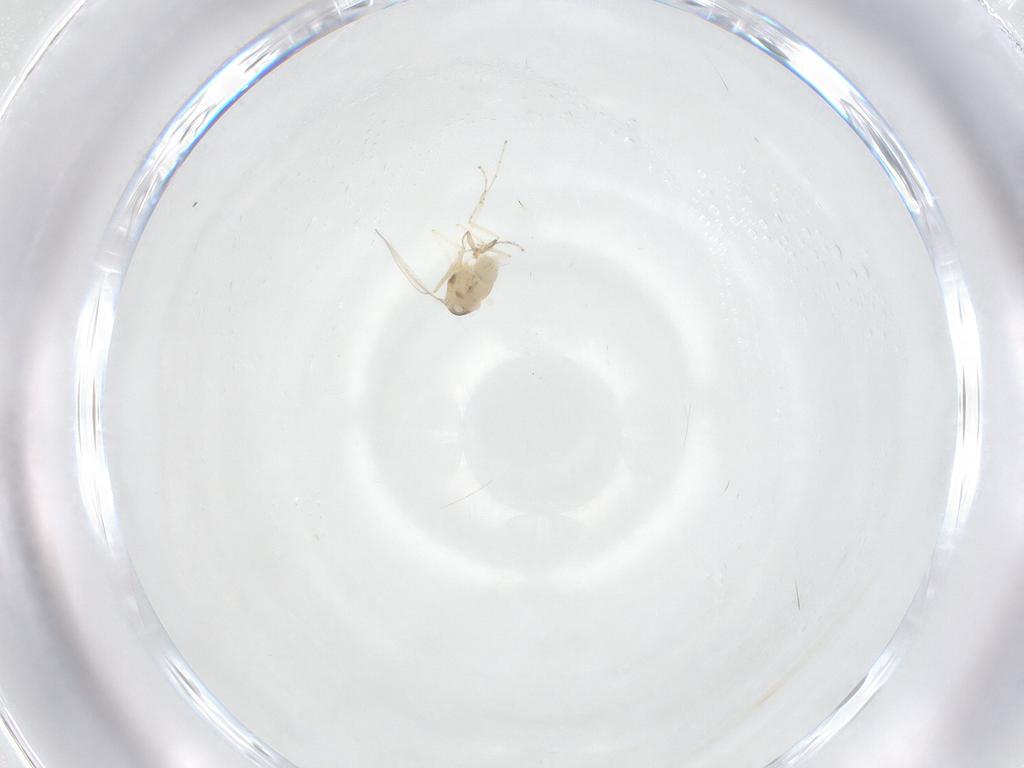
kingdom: Animalia
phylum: Arthropoda
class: Insecta
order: Diptera
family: Cecidomyiidae
